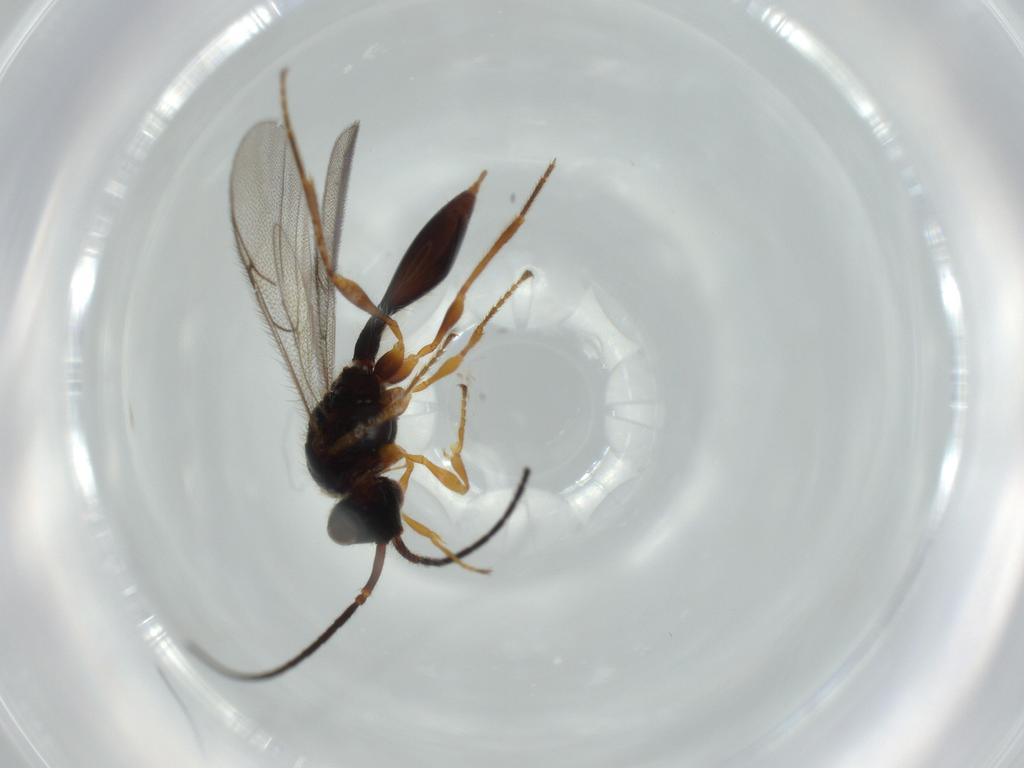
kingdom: Animalia
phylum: Arthropoda
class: Insecta
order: Hymenoptera
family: Diapriidae
